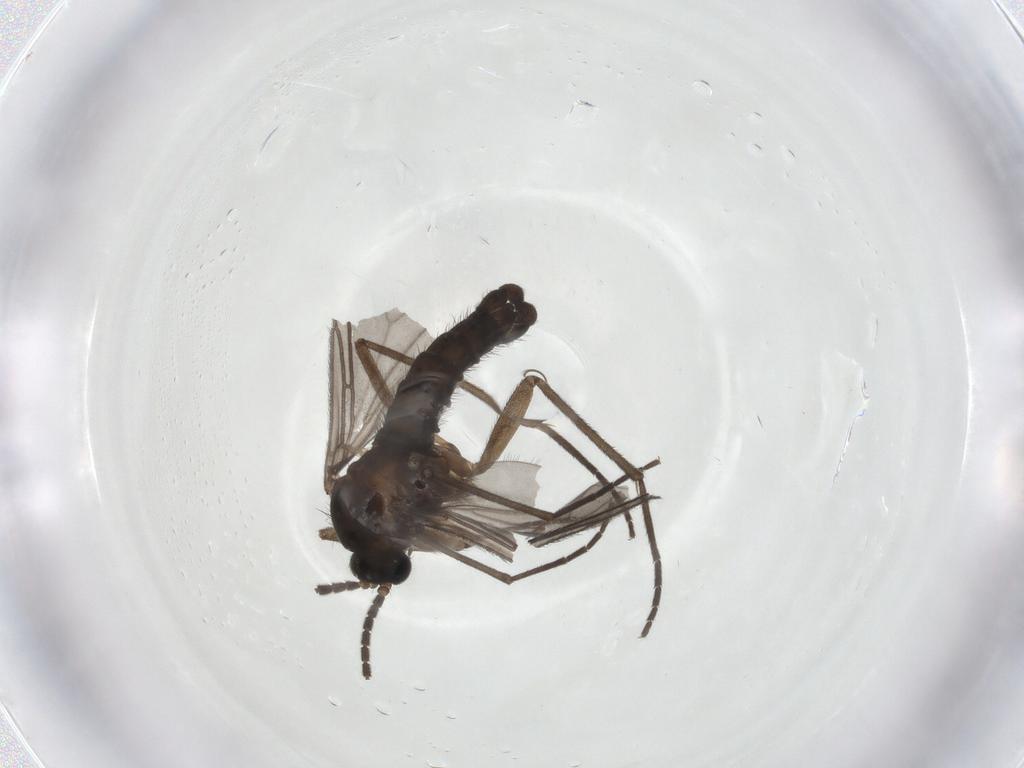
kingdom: Animalia
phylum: Arthropoda
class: Insecta
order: Diptera
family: Sciaridae
